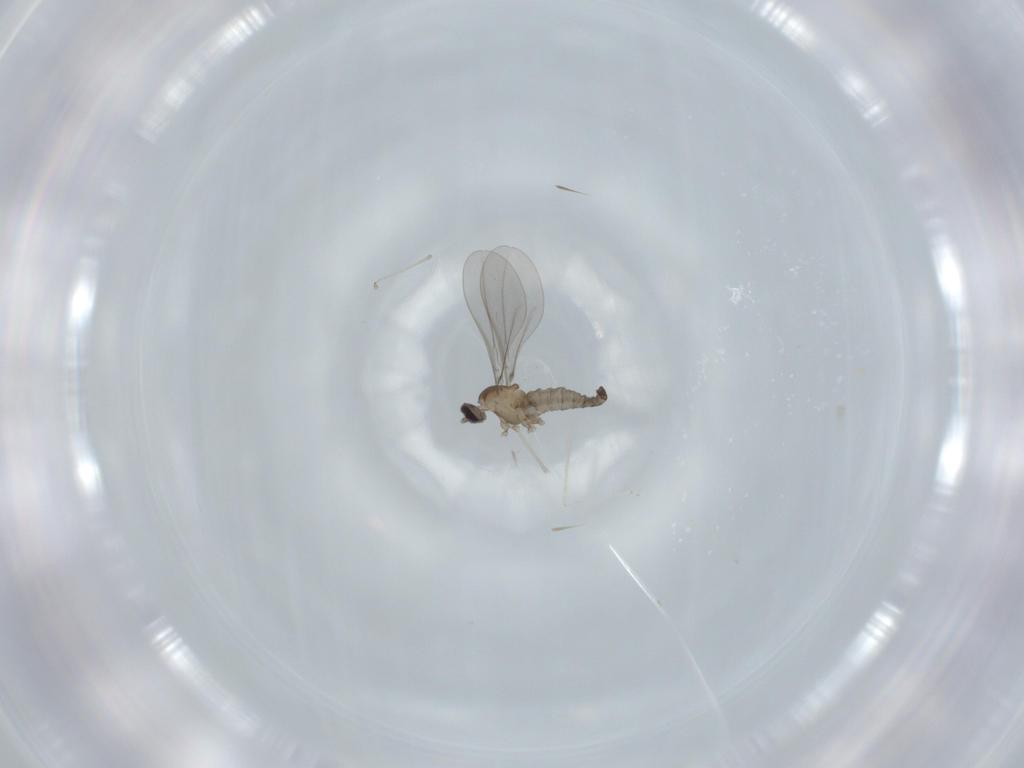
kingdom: Animalia
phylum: Arthropoda
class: Insecta
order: Diptera
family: Cecidomyiidae
